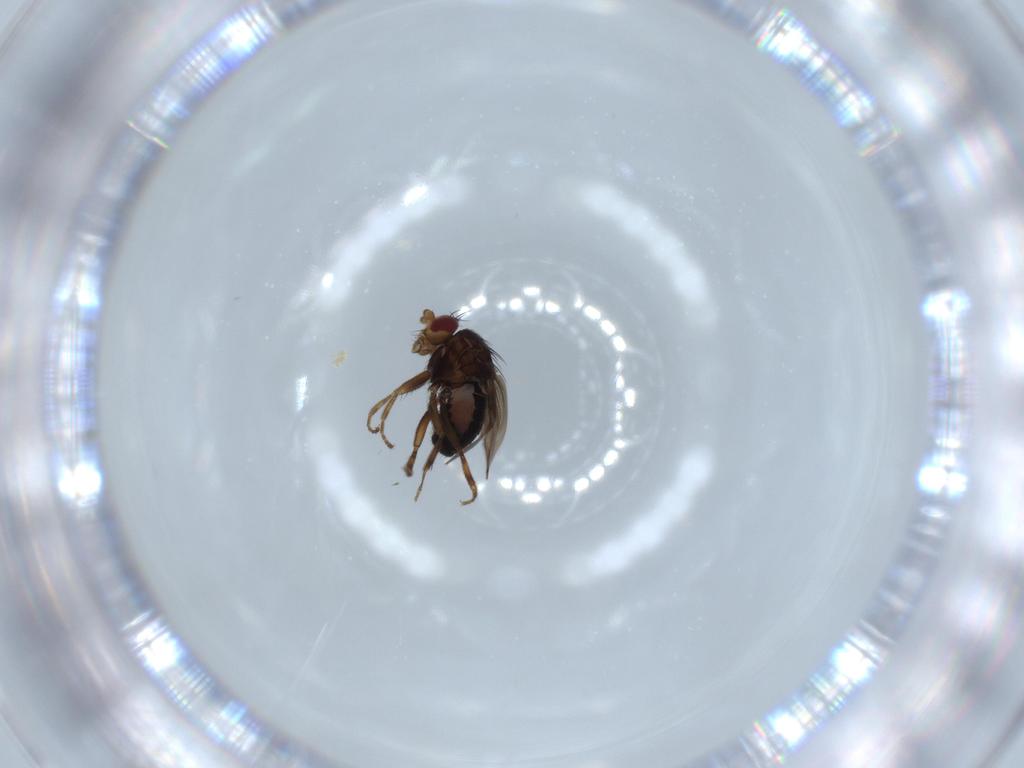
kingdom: Animalia
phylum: Arthropoda
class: Insecta
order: Diptera
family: Sphaeroceridae
